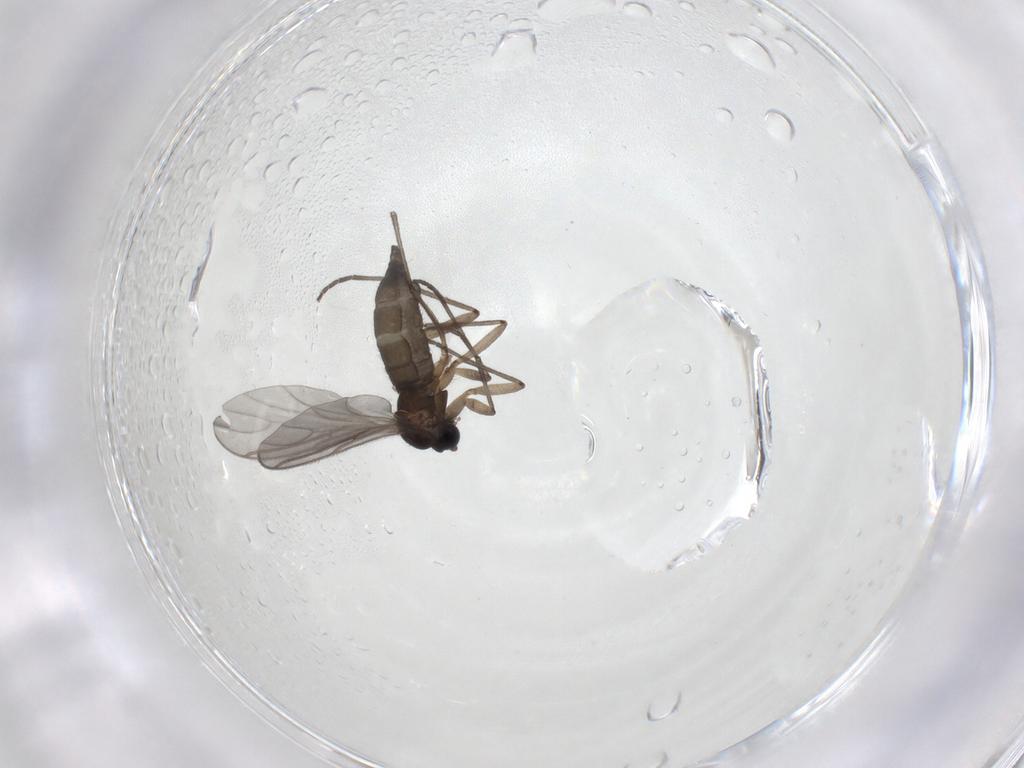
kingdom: Animalia
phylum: Arthropoda
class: Insecta
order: Diptera
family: Sciaridae
